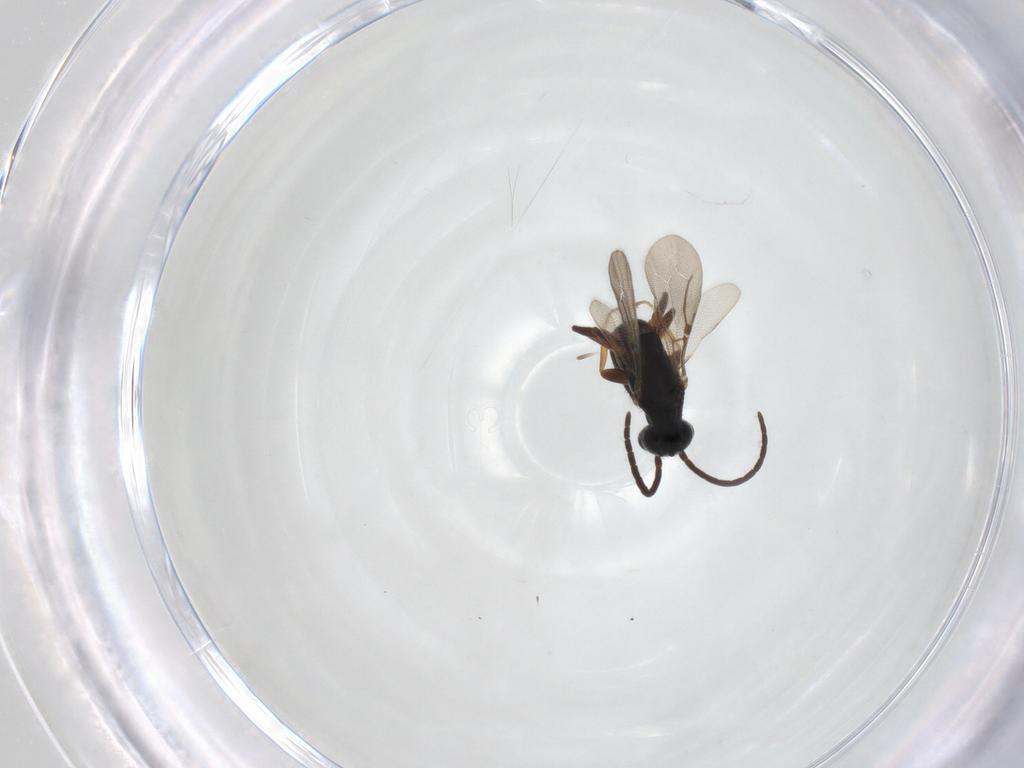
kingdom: Animalia
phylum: Arthropoda
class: Insecta
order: Hymenoptera
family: Bethylidae
